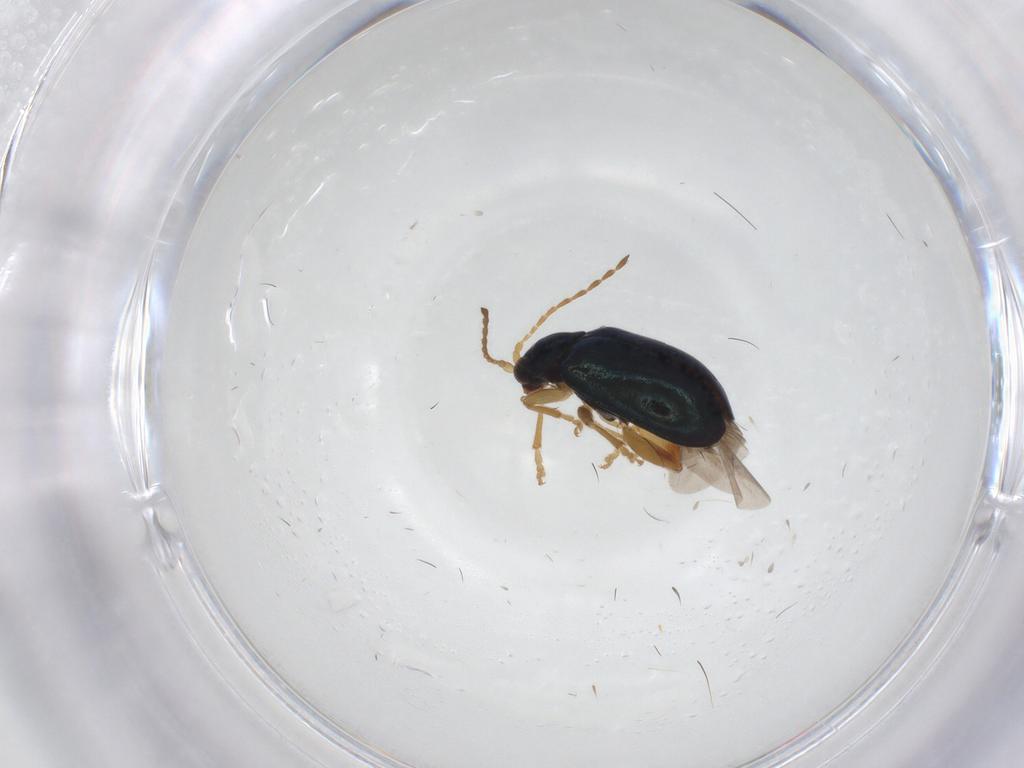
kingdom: Animalia
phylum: Arthropoda
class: Insecta
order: Coleoptera
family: Chrysomelidae
